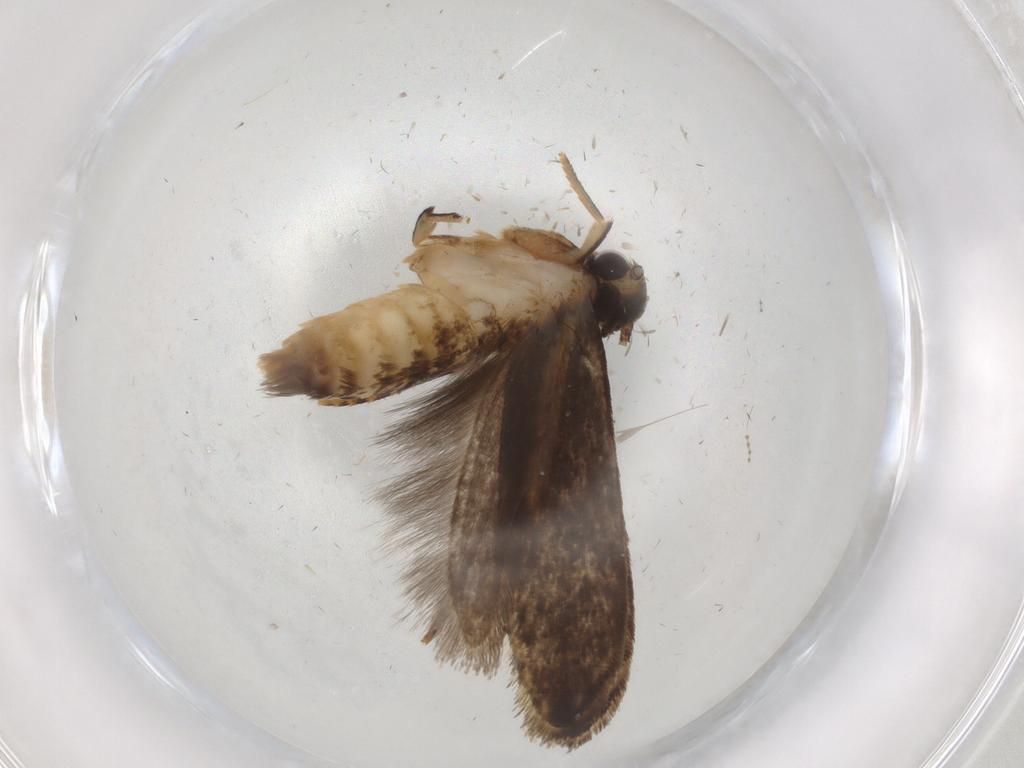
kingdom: Animalia
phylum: Arthropoda
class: Insecta
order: Lepidoptera
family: Gelechiidae
